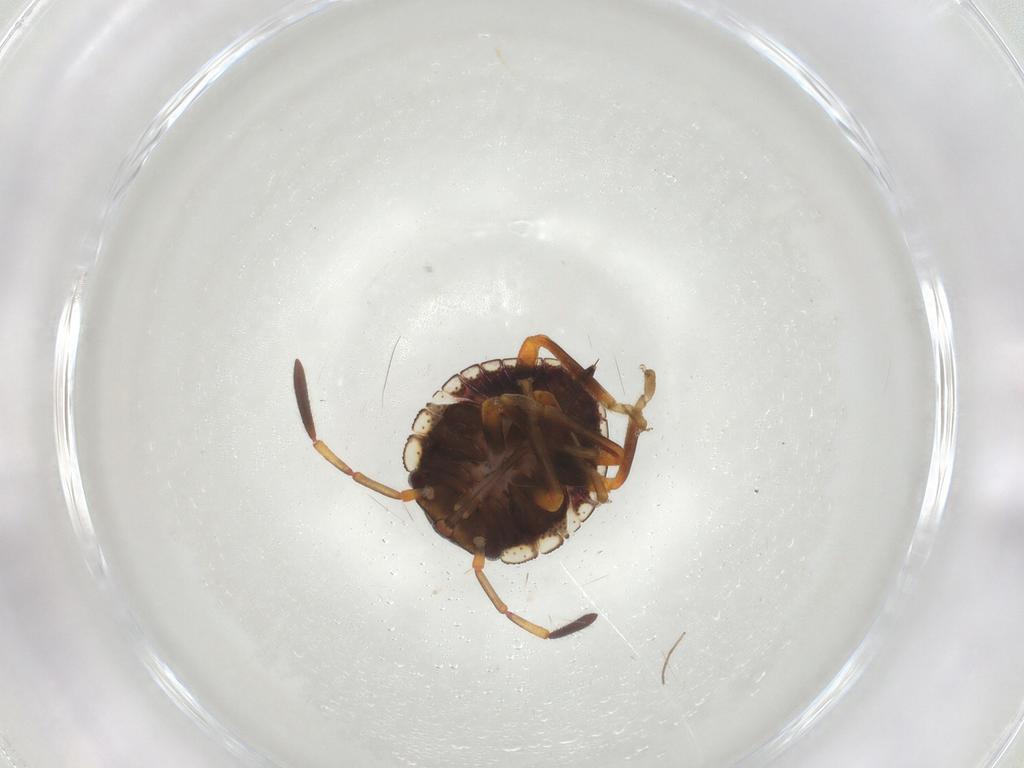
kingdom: Animalia
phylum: Arthropoda
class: Insecta
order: Hemiptera
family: Pentatomidae
